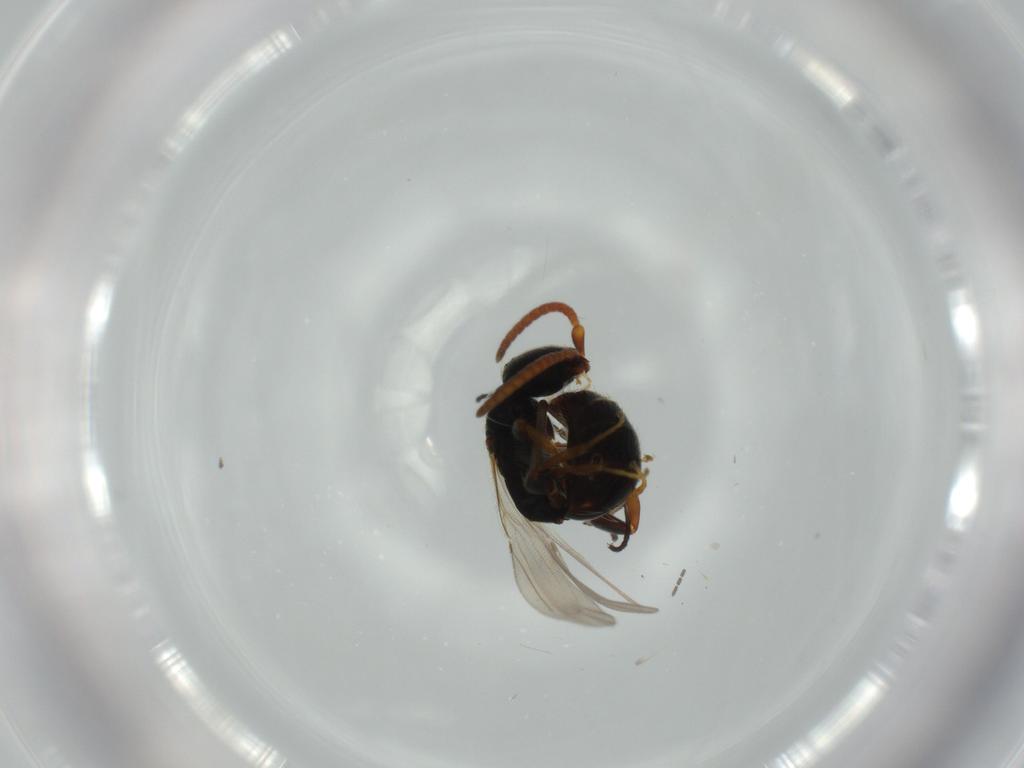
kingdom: Animalia
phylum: Arthropoda
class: Insecta
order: Hymenoptera
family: Bethylidae
